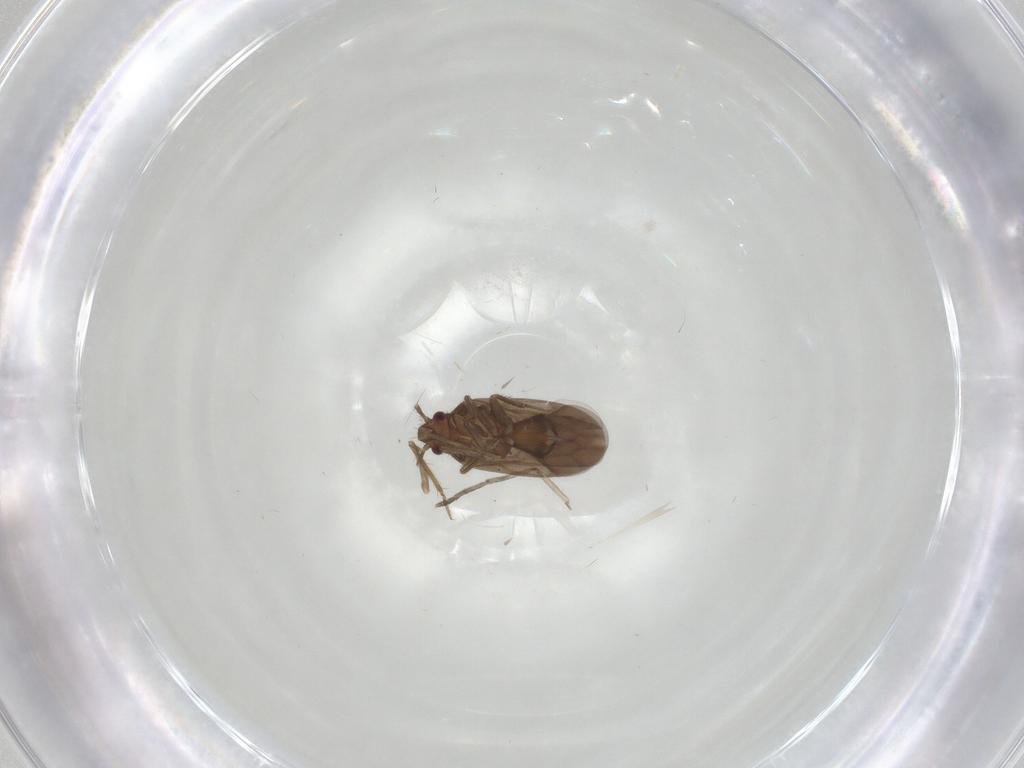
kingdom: Animalia
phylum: Arthropoda
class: Insecta
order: Hemiptera
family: Ceratocombidae
